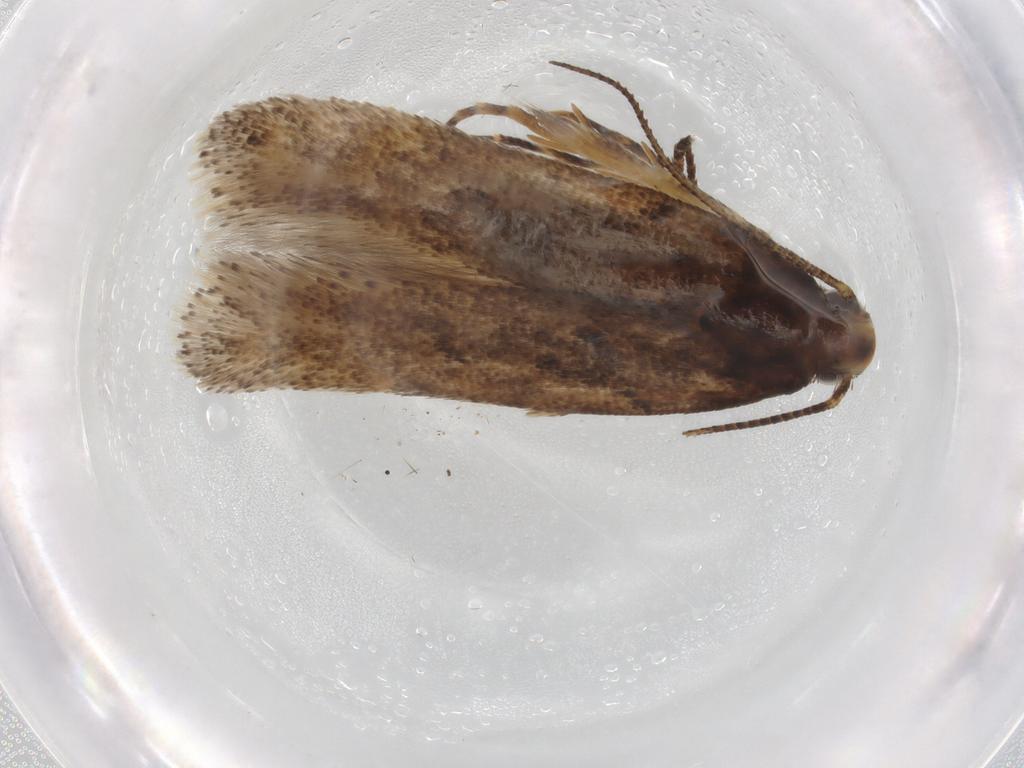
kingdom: Animalia
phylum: Arthropoda
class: Insecta
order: Lepidoptera
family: Gelechiidae
